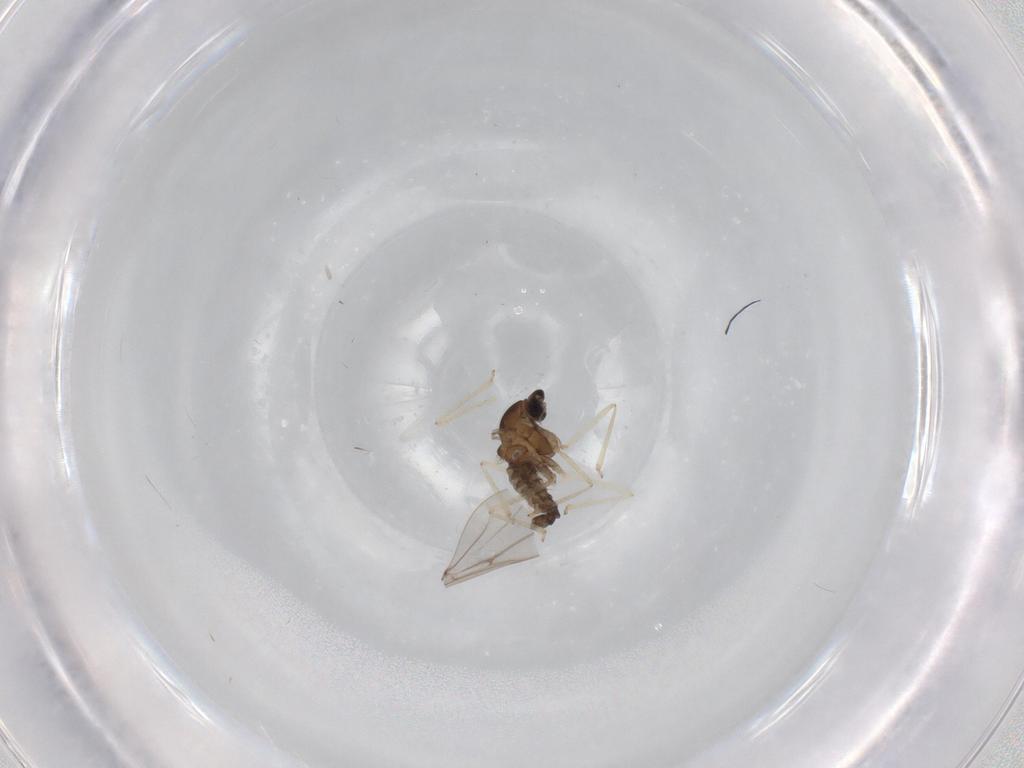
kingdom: Animalia
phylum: Arthropoda
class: Insecta
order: Diptera
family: Cecidomyiidae
